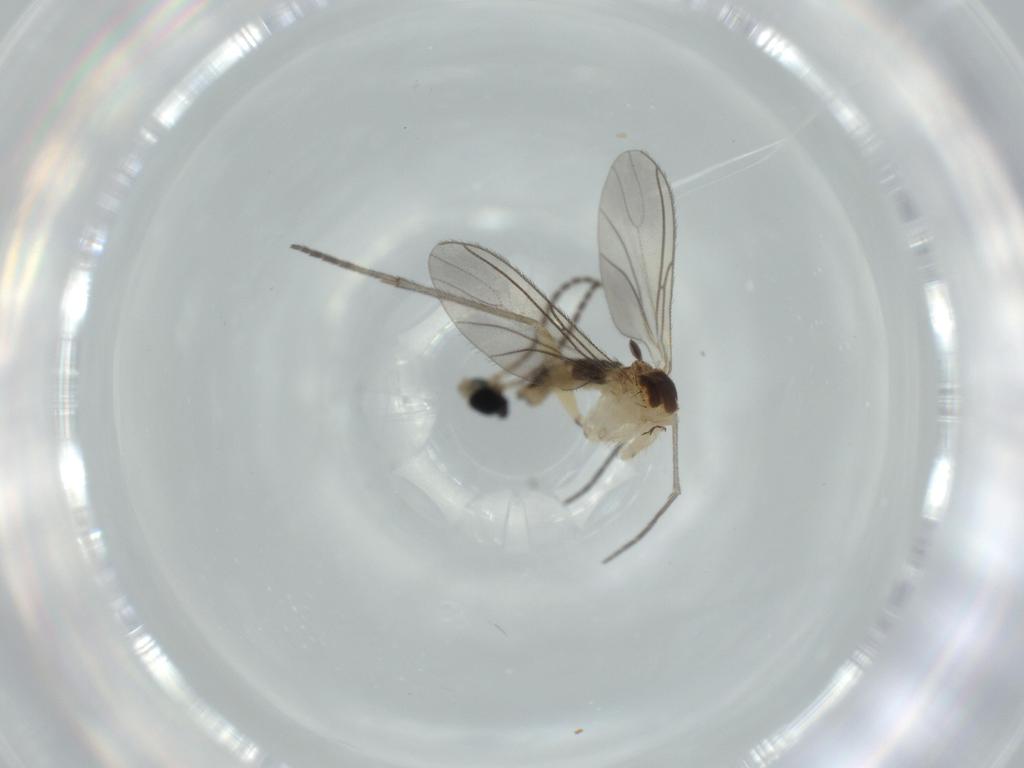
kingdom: Animalia
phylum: Arthropoda
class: Insecta
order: Diptera
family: Sciaridae
